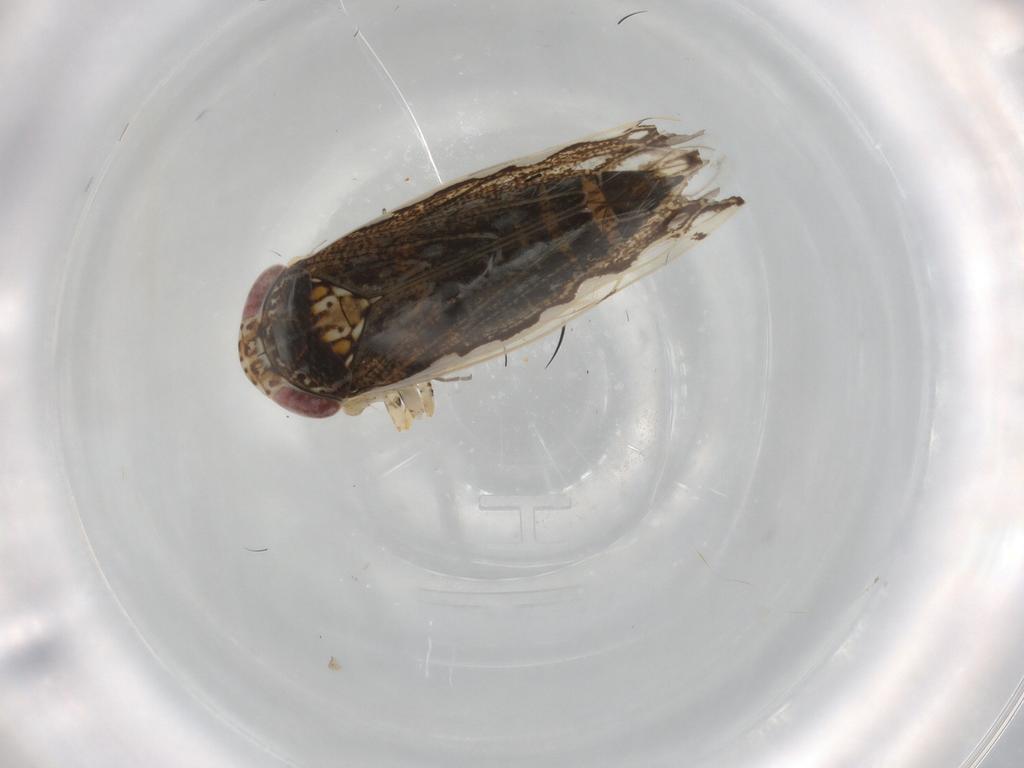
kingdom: Animalia
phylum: Arthropoda
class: Insecta
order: Hemiptera
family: Cicadellidae
